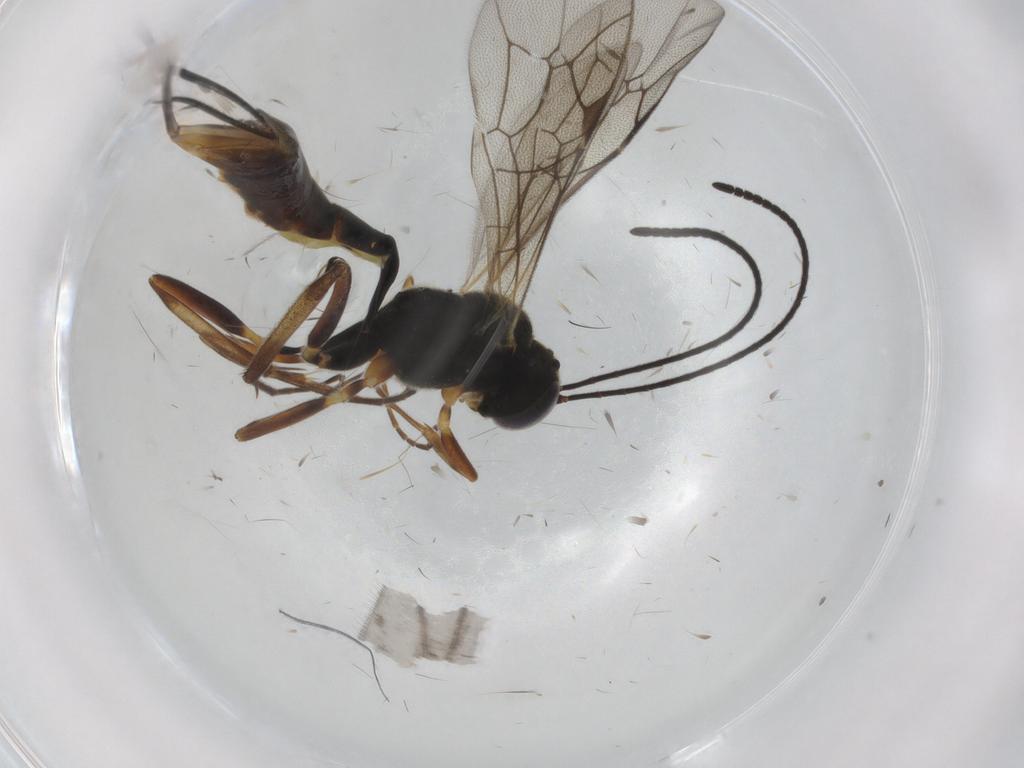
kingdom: Animalia
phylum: Arthropoda
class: Insecta
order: Hymenoptera
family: Ichneumonidae
